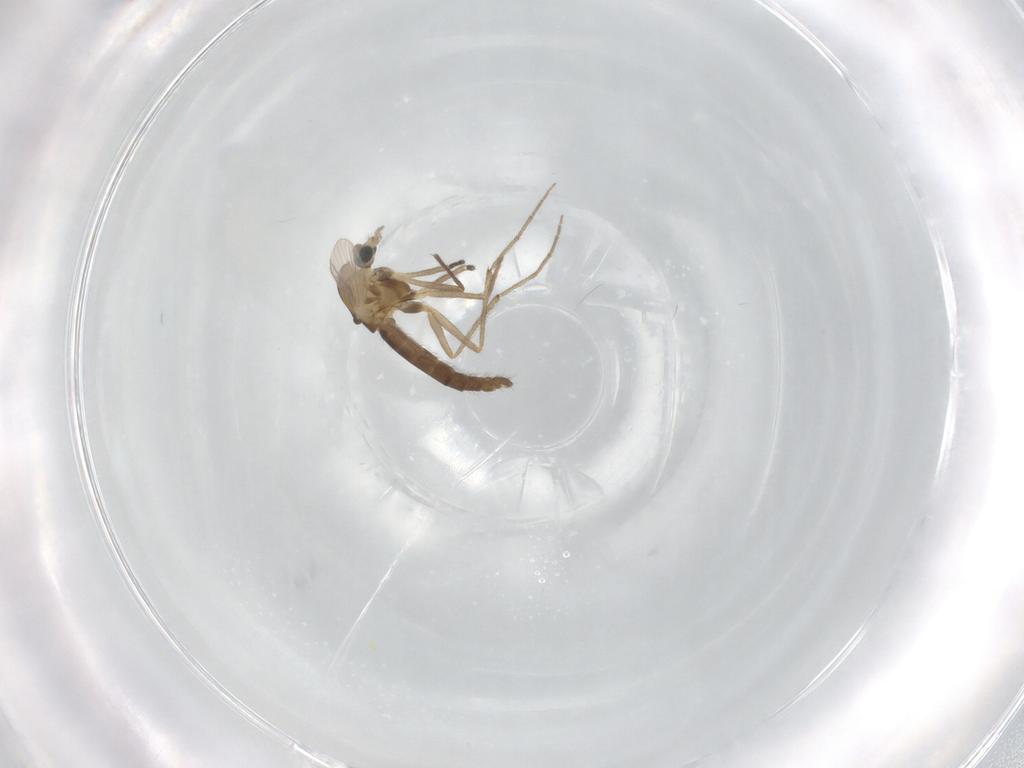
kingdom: Animalia
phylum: Arthropoda
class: Insecta
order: Diptera
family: Chironomidae
